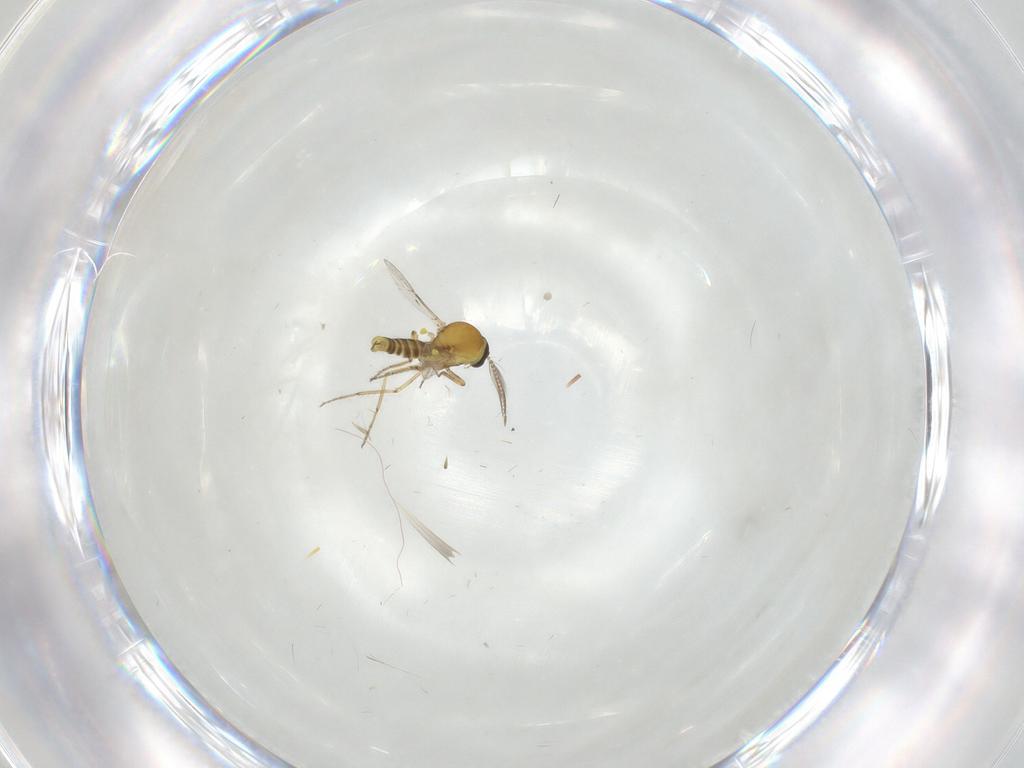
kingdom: Animalia
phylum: Arthropoda
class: Insecta
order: Diptera
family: Ceratopogonidae
